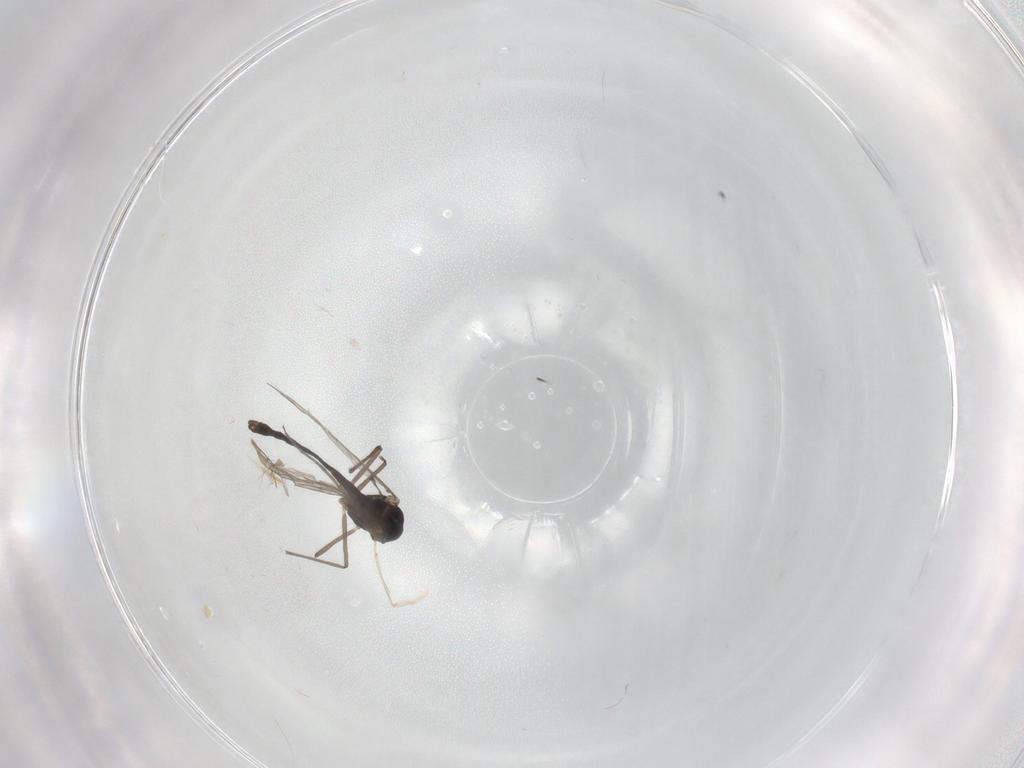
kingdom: Animalia
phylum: Arthropoda
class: Insecta
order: Diptera
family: Chironomidae
